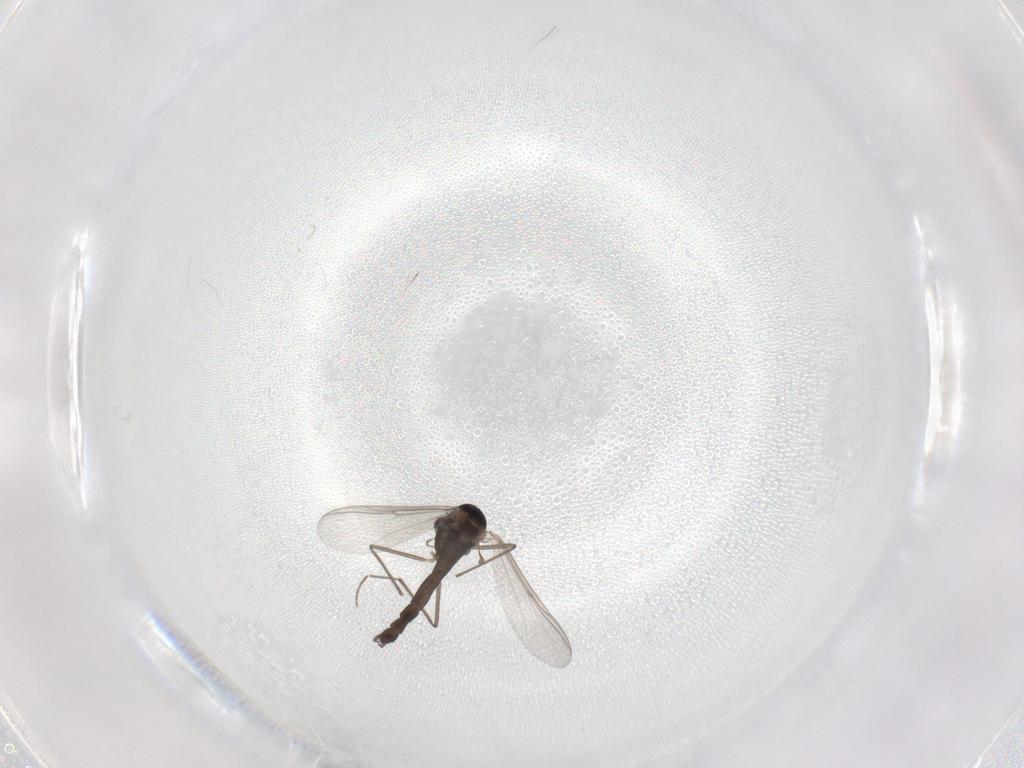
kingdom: Animalia
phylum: Arthropoda
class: Insecta
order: Diptera
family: Chironomidae
